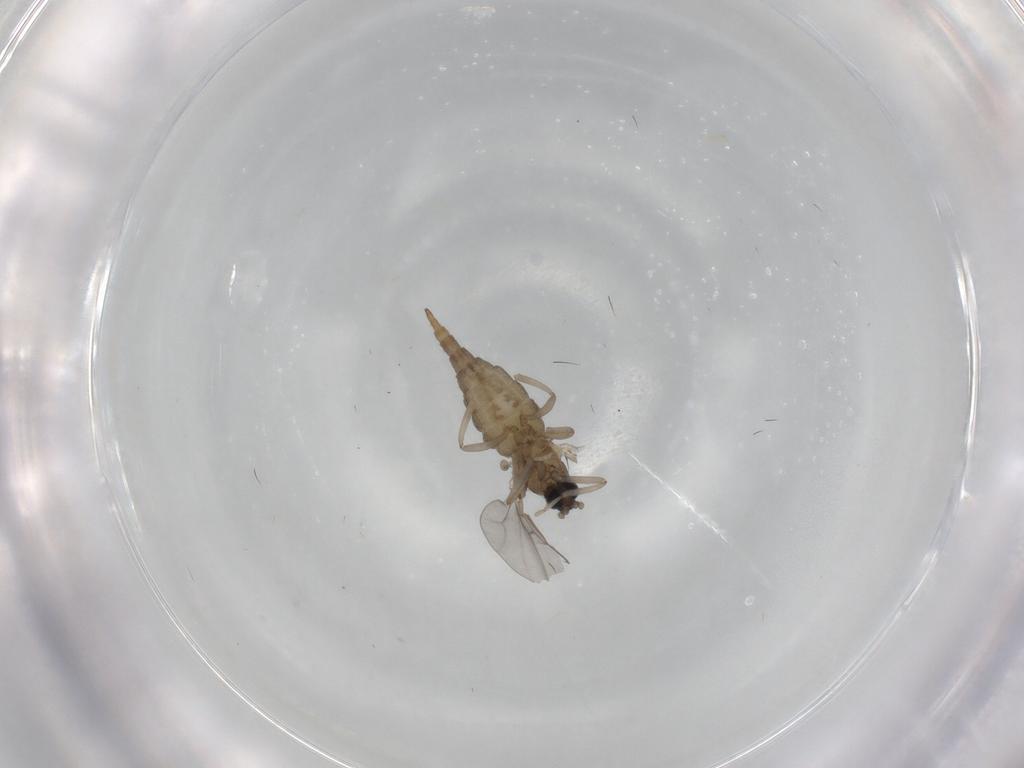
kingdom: Animalia
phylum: Arthropoda
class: Insecta
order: Diptera
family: Cecidomyiidae
